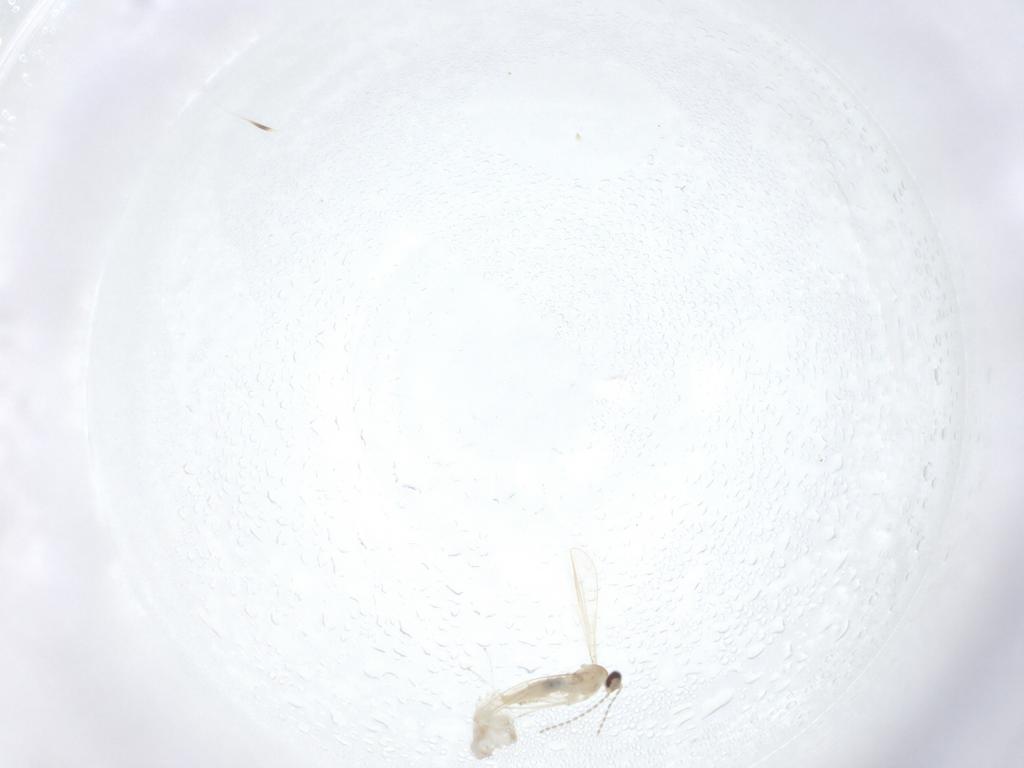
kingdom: Animalia
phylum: Arthropoda
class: Insecta
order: Diptera
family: Cecidomyiidae
